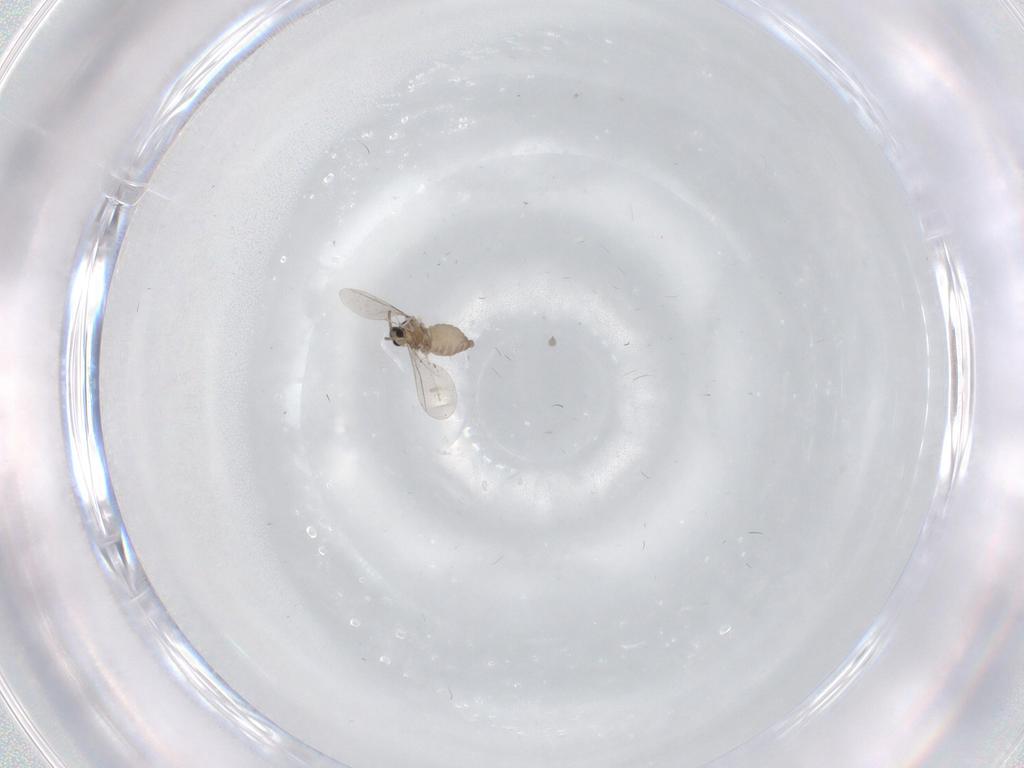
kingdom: Animalia
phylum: Arthropoda
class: Insecta
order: Diptera
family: Cecidomyiidae
